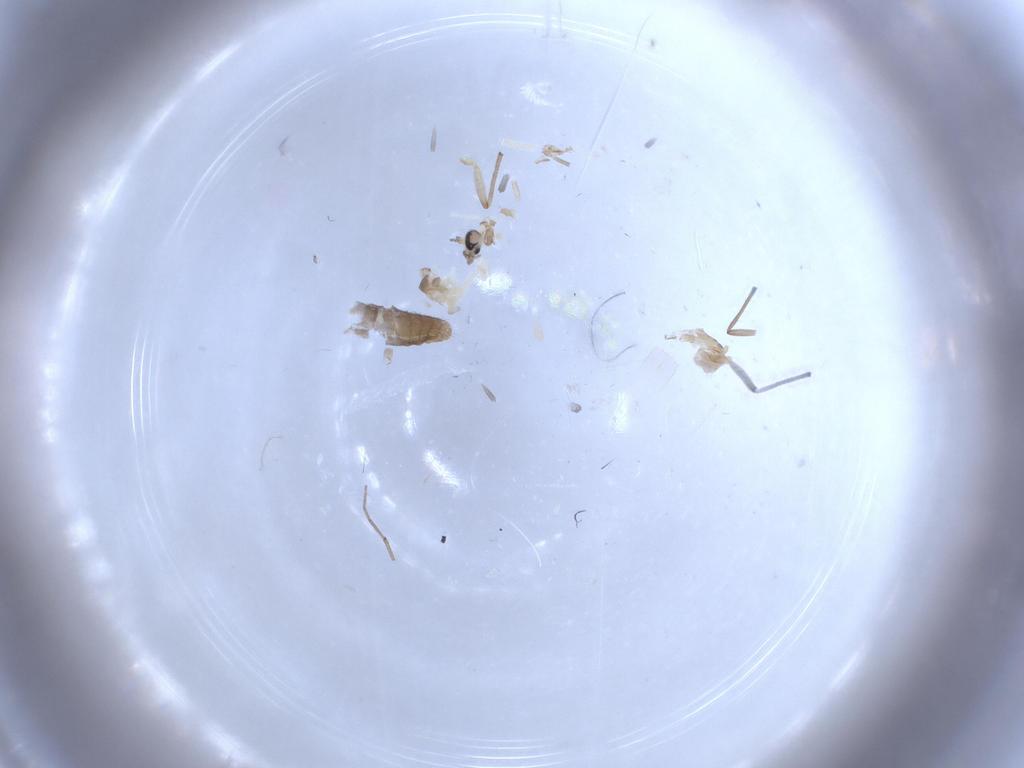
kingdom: Animalia
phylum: Arthropoda
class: Insecta
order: Diptera
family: Chironomidae
